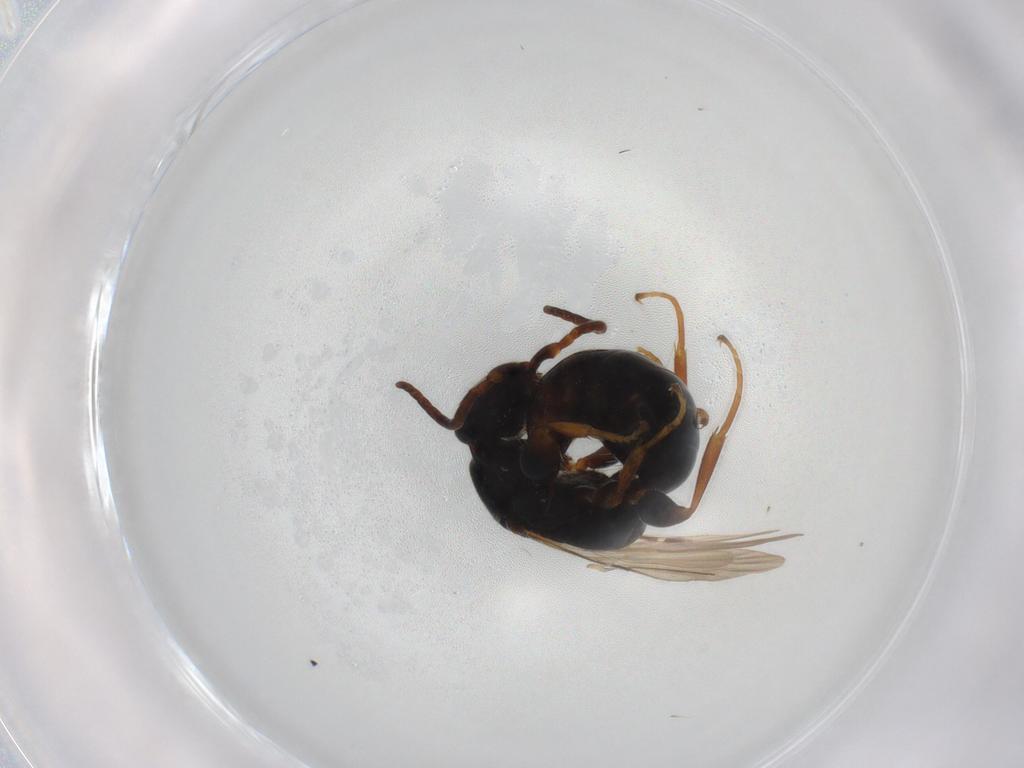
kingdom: Animalia
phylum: Arthropoda
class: Insecta
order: Hymenoptera
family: Bethylidae
